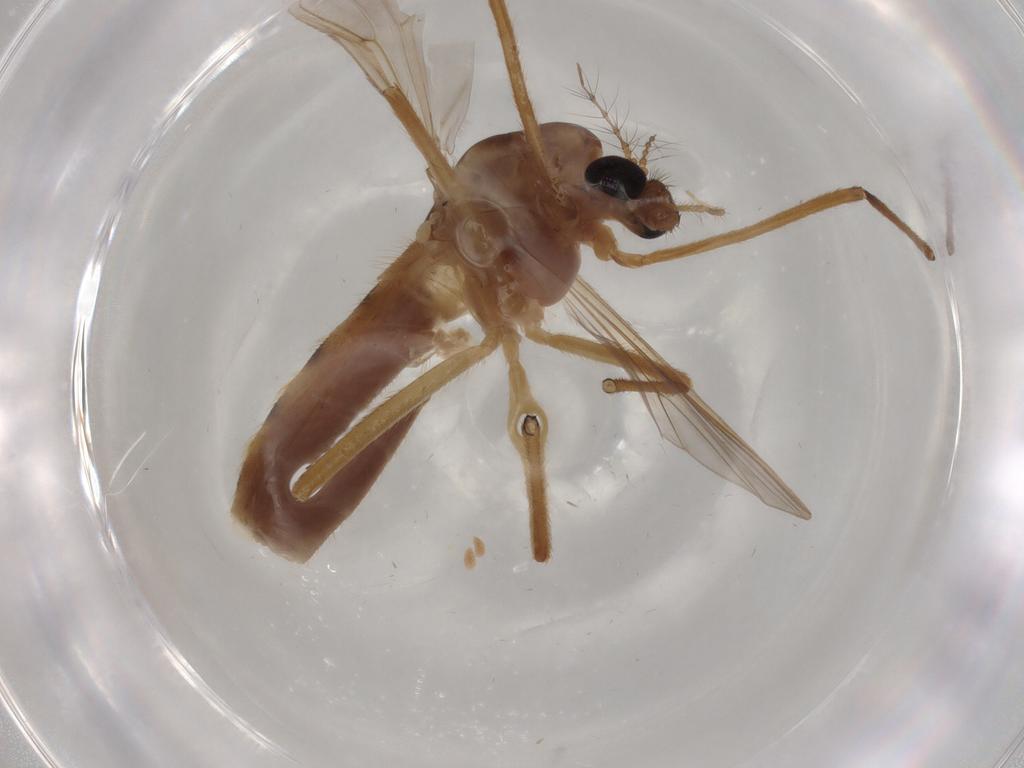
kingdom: Animalia
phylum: Arthropoda
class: Insecta
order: Diptera
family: Chironomidae
